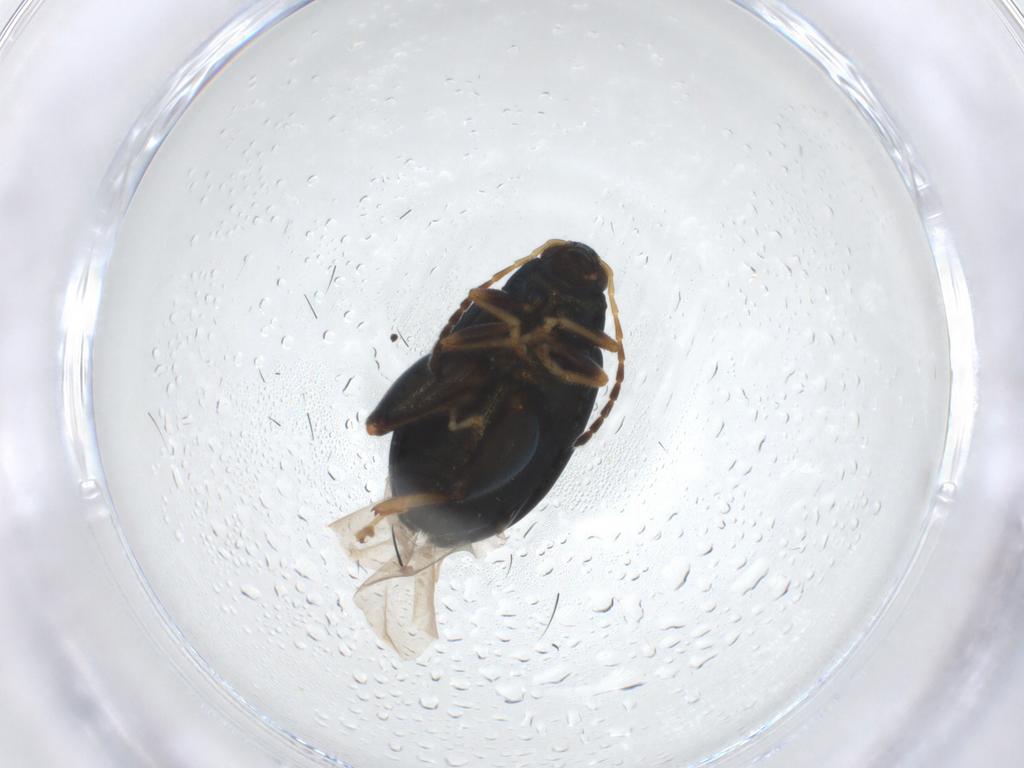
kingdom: Animalia
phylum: Arthropoda
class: Insecta
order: Coleoptera
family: Chrysomelidae
